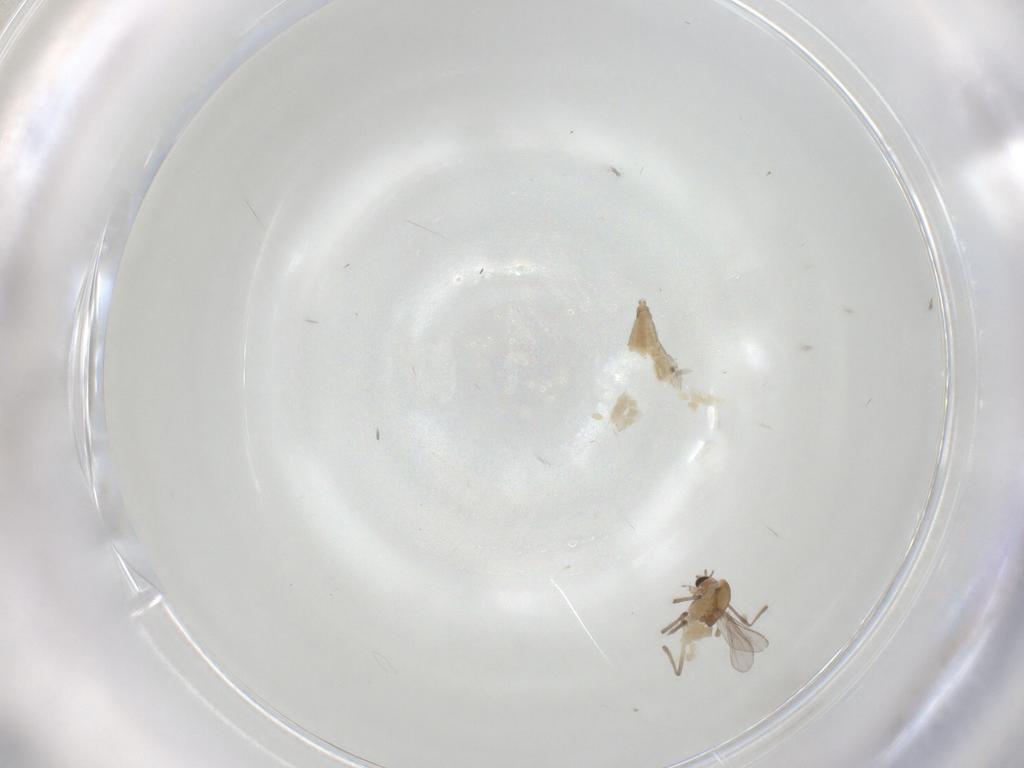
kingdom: Animalia
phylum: Arthropoda
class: Insecta
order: Diptera
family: Chironomidae
